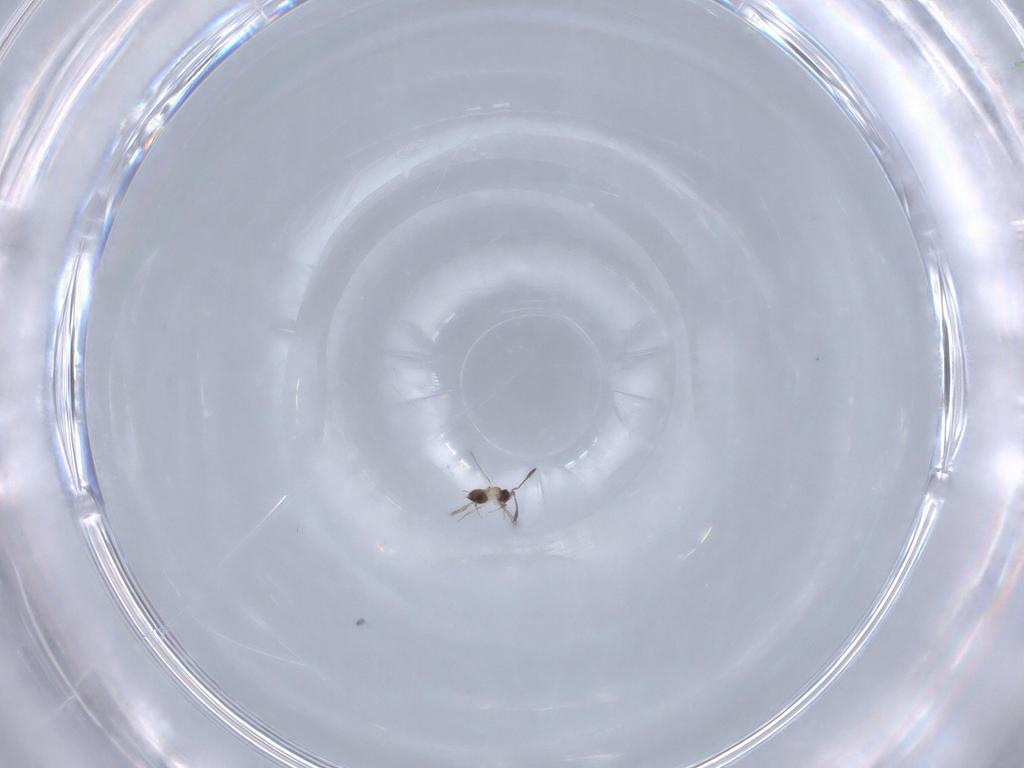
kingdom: Animalia
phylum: Arthropoda
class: Insecta
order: Hymenoptera
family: Mymaridae
